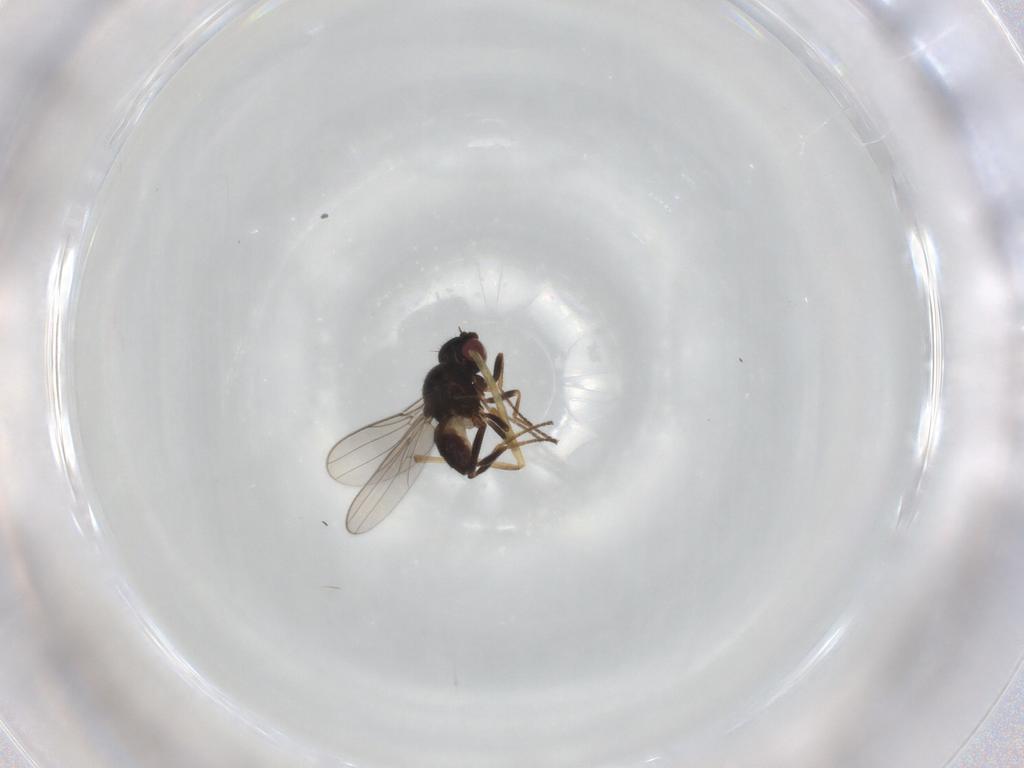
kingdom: Animalia
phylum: Arthropoda
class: Insecta
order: Diptera
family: Chloropidae
